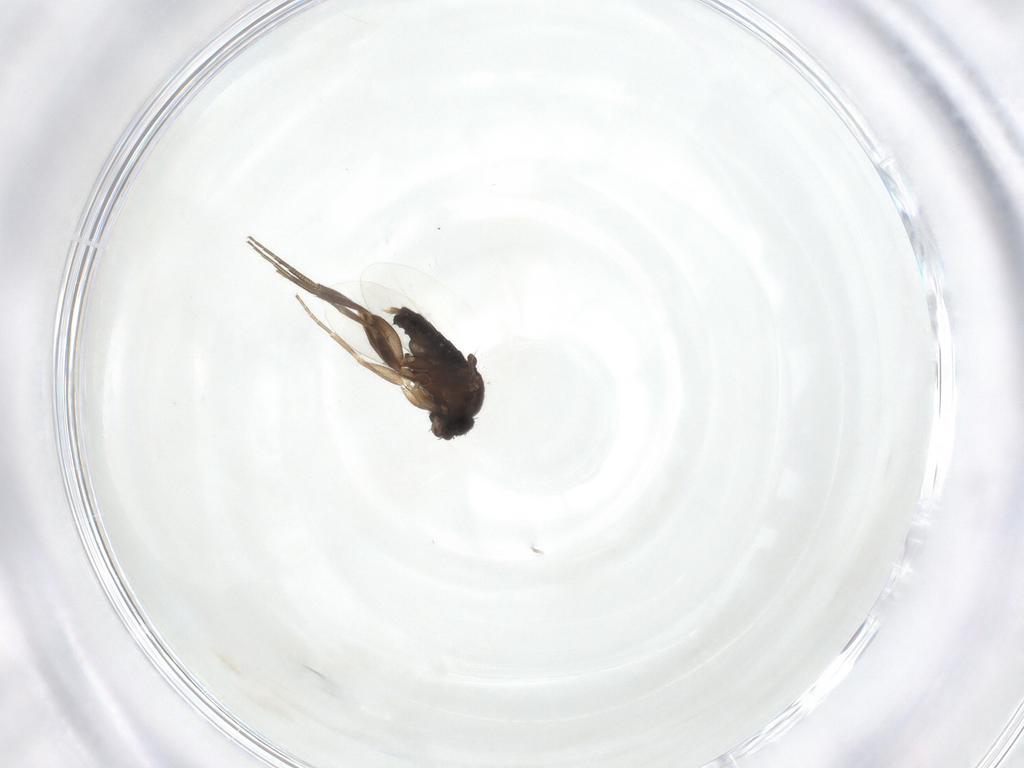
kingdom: Animalia
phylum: Arthropoda
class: Insecta
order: Diptera
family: Phoridae
